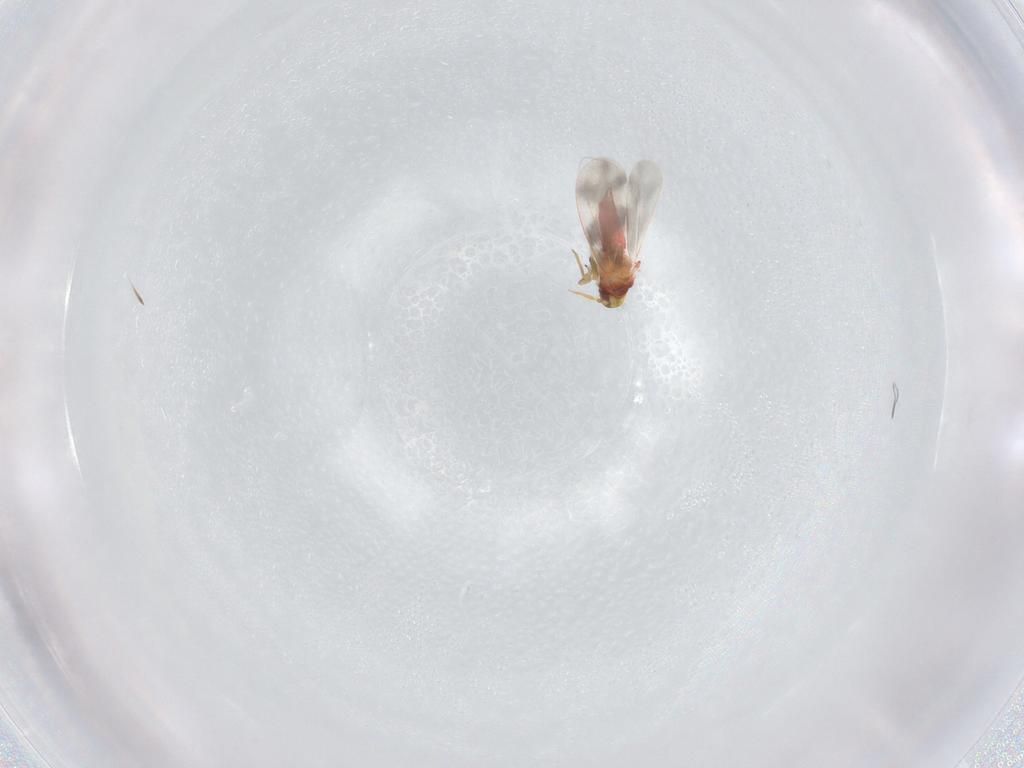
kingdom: Animalia
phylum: Arthropoda
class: Insecta
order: Hemiptera
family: Aleyrodidae
